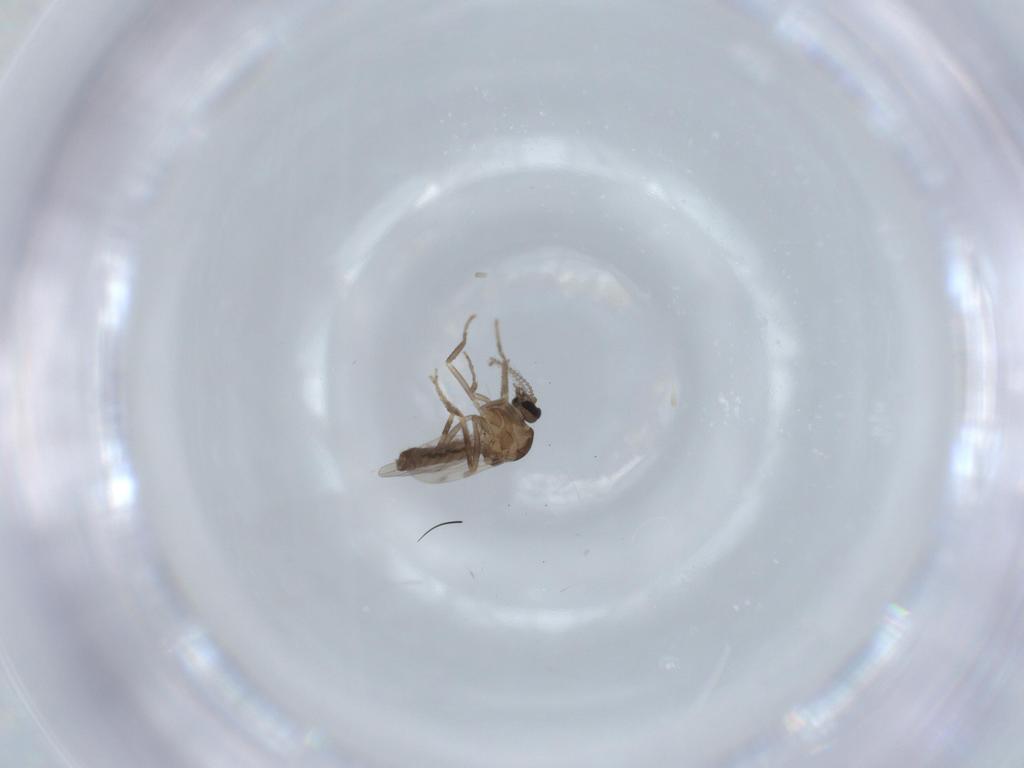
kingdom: Animalia
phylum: Arthropoda
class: Insecta
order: Diptera
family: Ceratopogonidae
